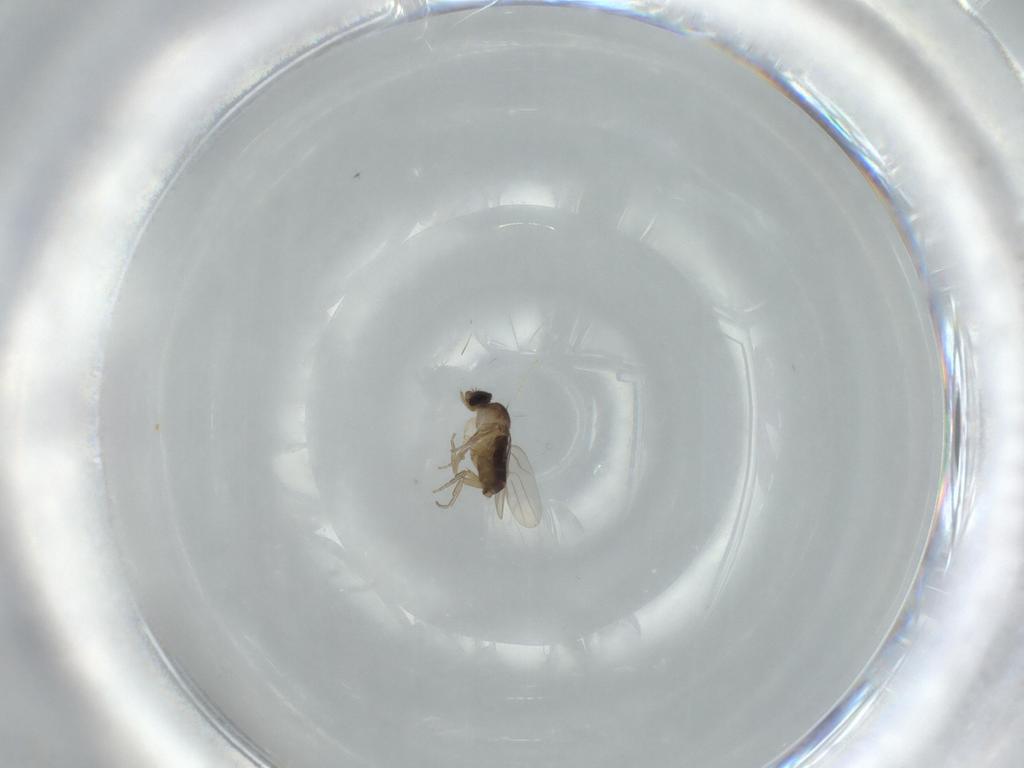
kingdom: Animalia
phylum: Arthropoda
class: Insecta
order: Diptera
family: Phoridae
